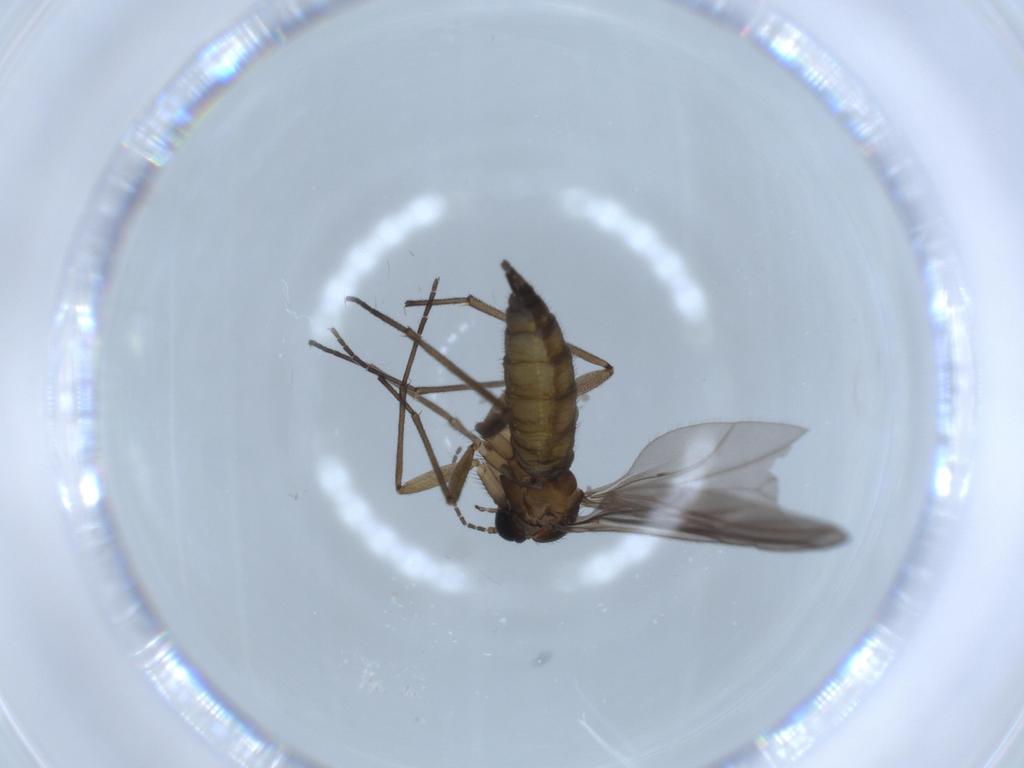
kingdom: Animalia
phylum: Arthropoda
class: Insecta
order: Diptera
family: Sciaridae
